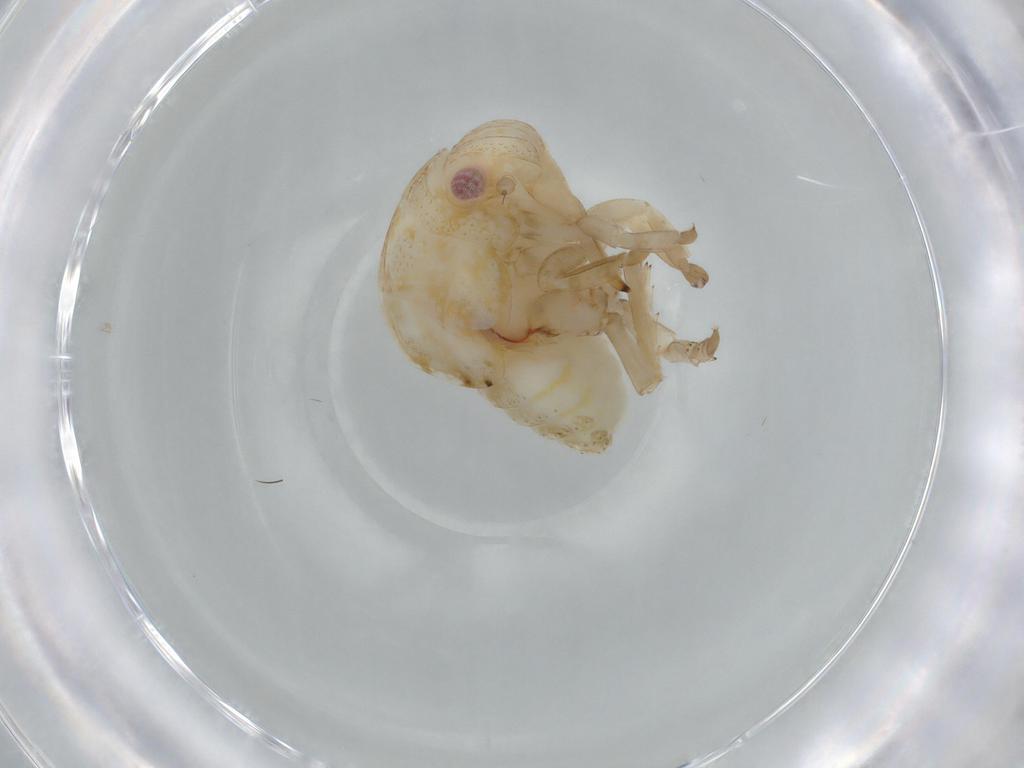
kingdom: Animalia
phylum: Arthropoda
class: Insecta
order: Hemiptera
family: Acanaloniidae
